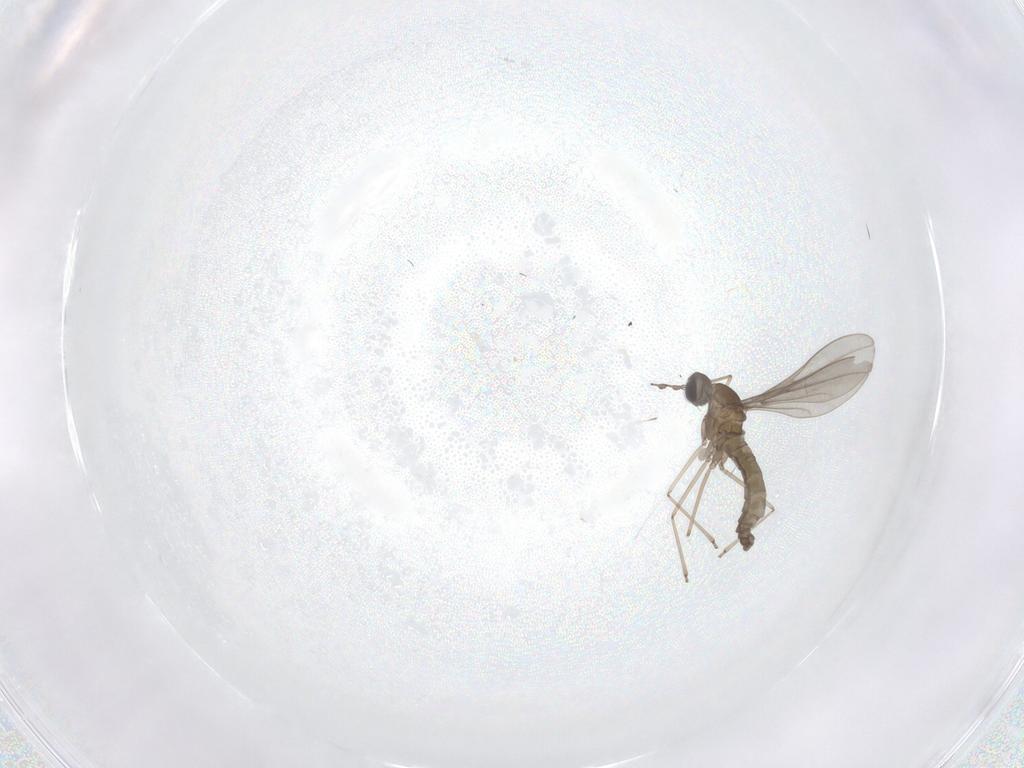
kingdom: Animalia
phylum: Arthropoda
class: Insecta
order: Diptera
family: Cecidomyiidae
